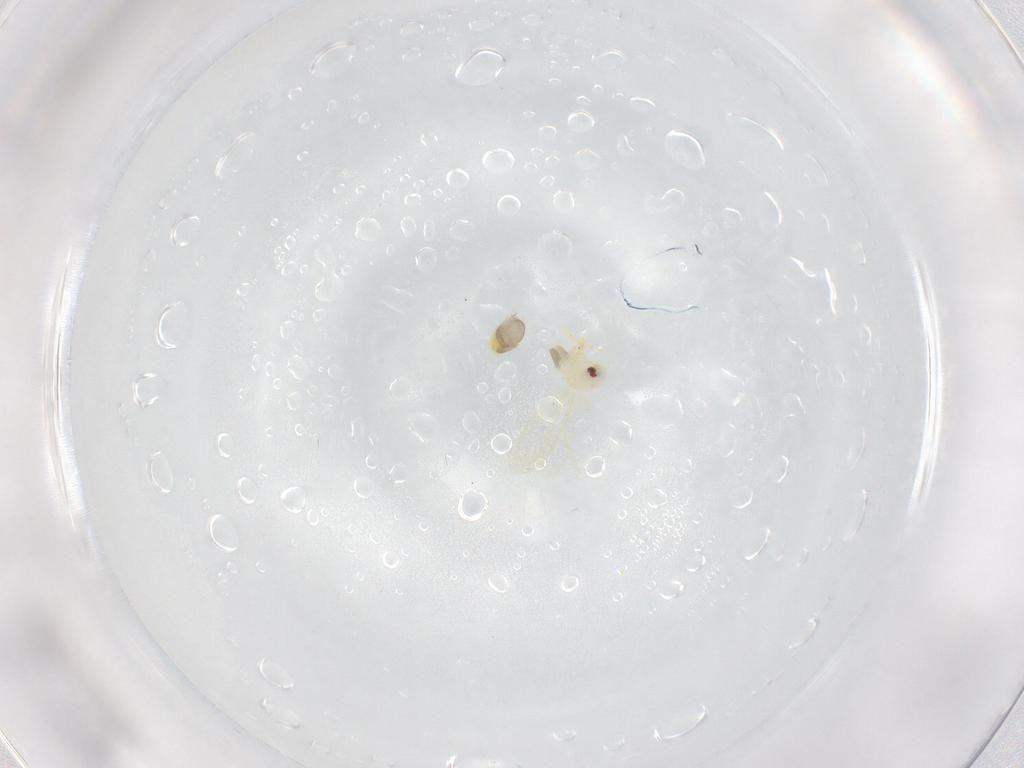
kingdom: Animalia
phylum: Arthropoda
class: Insecta
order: Hemiptera
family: Aleyrodidae
